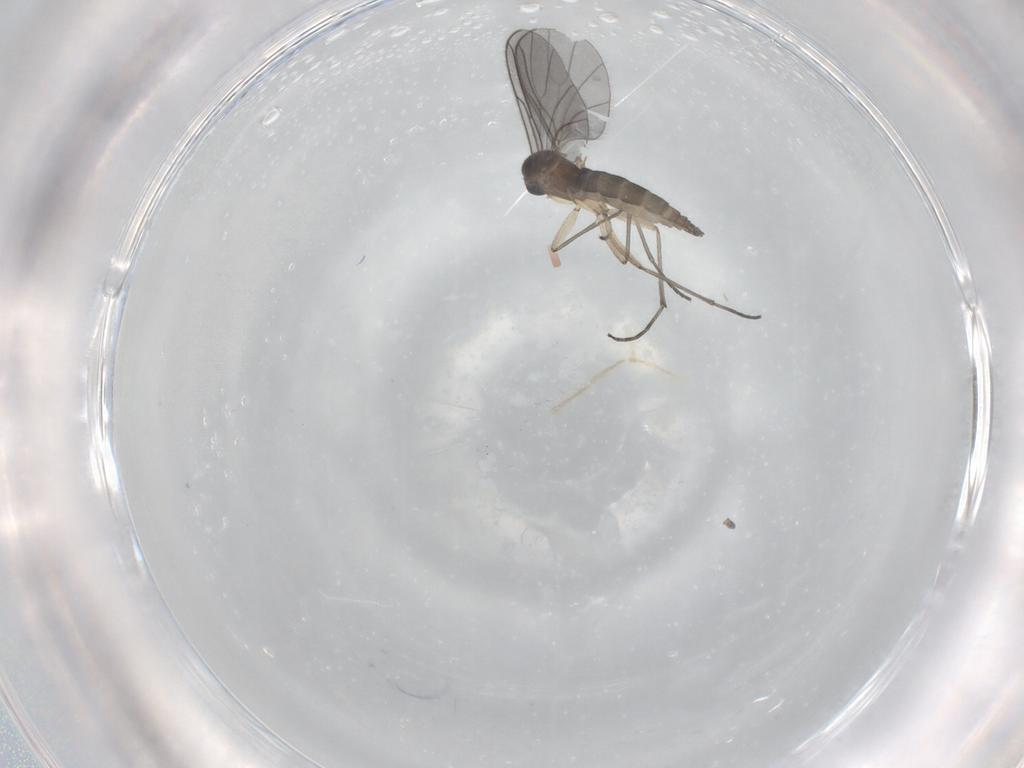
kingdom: Animalia
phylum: Arthropoda
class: Insecta
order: Diptera
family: Sciaridae
